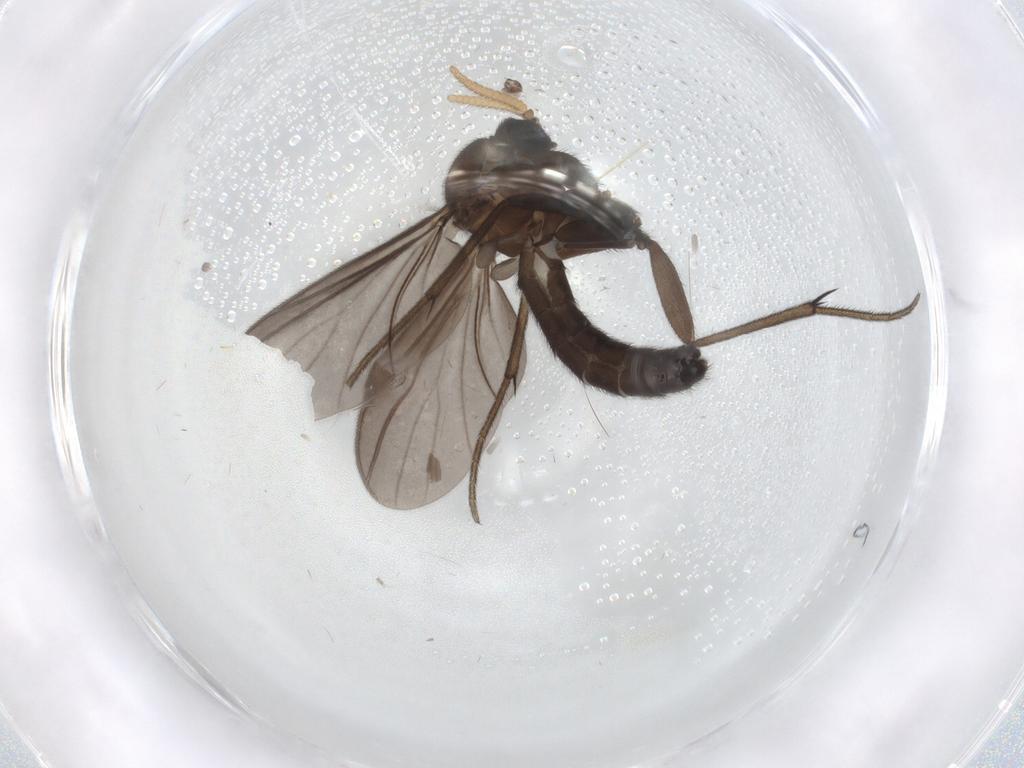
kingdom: Animalia
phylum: Arthropoda
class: Insecta
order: Diptera
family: Mycetophilidae
